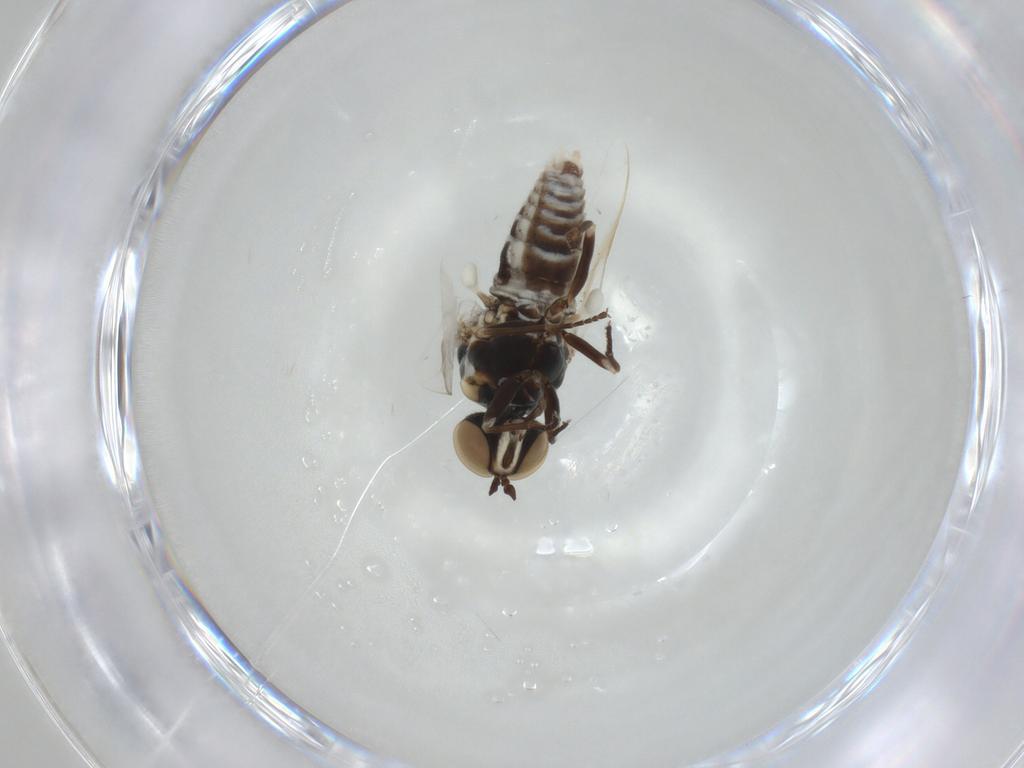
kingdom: Animalia
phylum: Arthropoda
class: Insecta
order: Diptera
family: Scenopinidae
